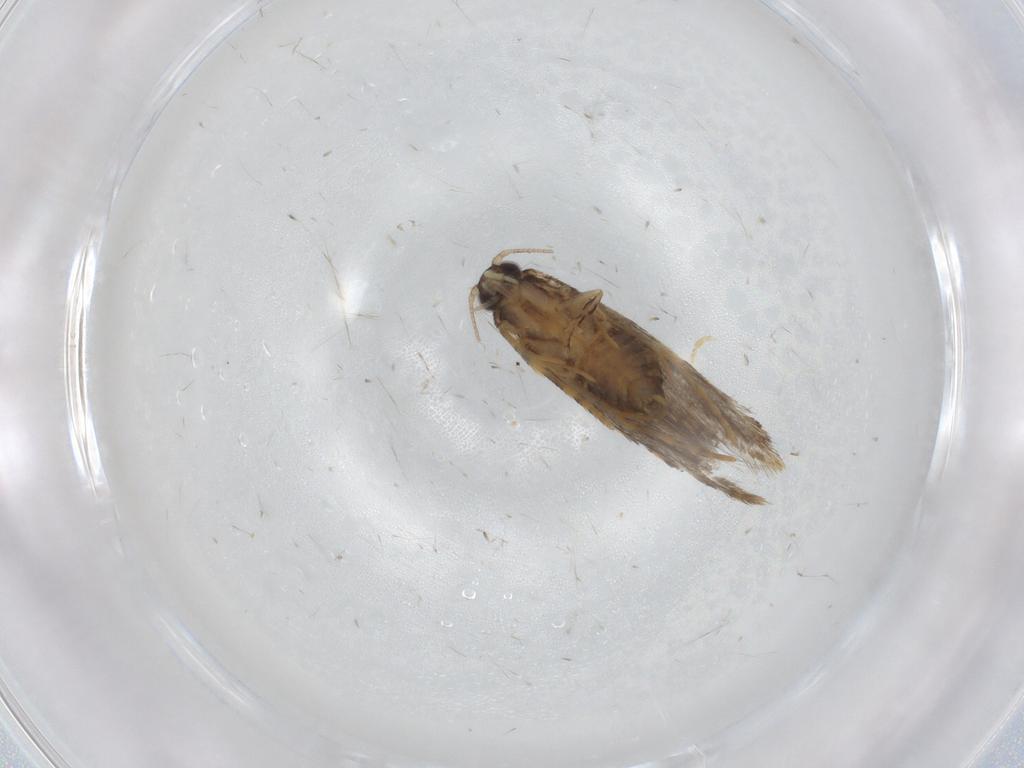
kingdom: Animalia
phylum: Arthropoda
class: Insecta
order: Lepidoptera
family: Tineidae
